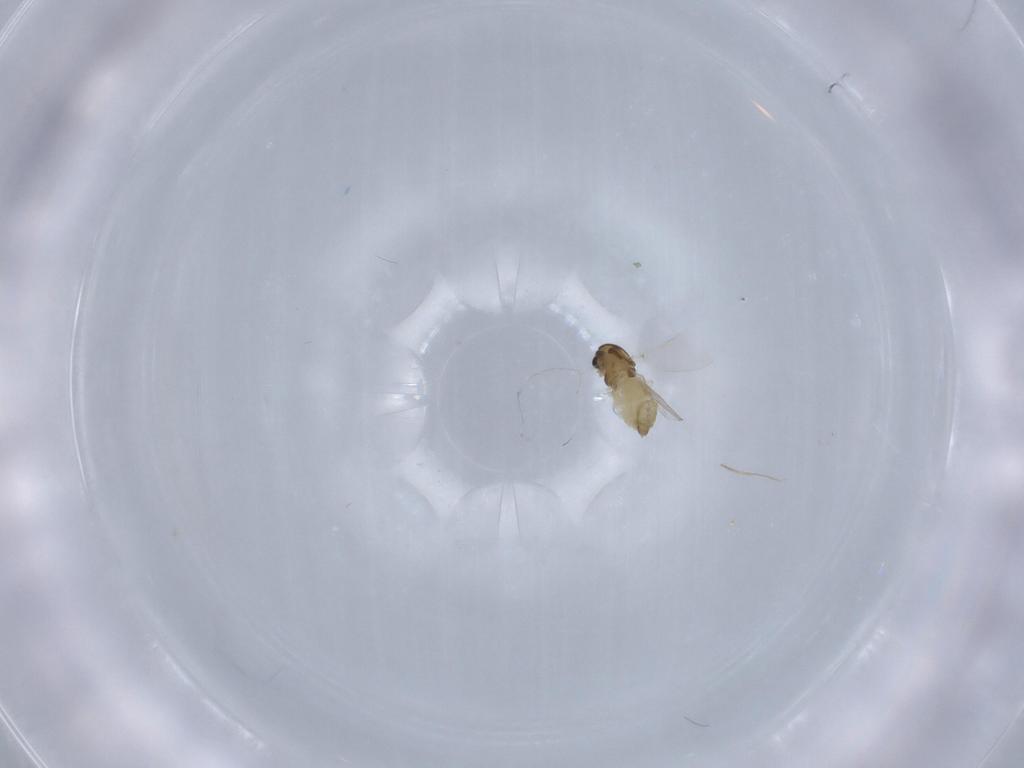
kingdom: Animalia
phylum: Arthropoda
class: Insecta
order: Diptera
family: Chironomidae
